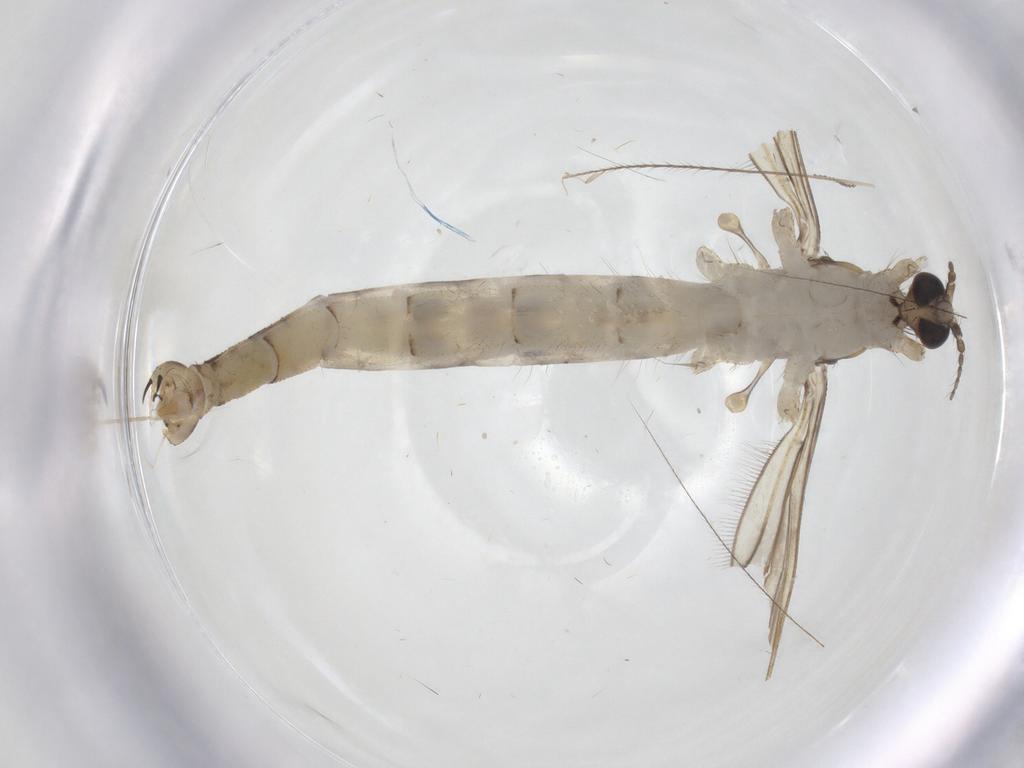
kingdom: Animalia
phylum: Arthropoda
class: Insecta
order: Diptera
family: Limoniidae
